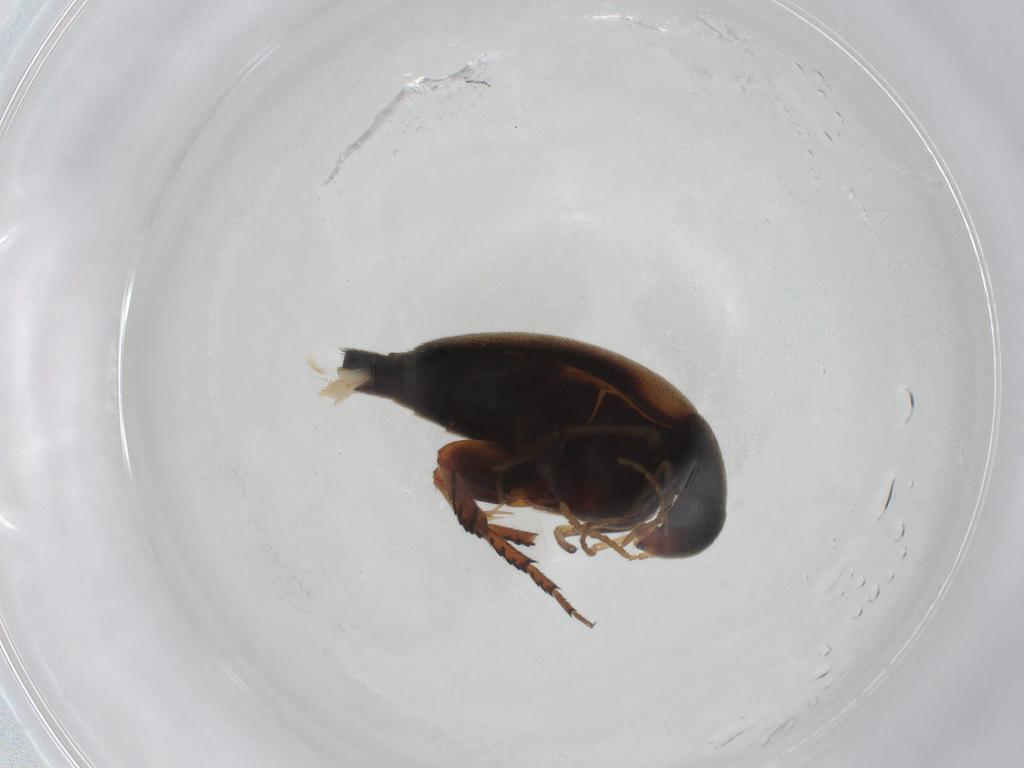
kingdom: Animalia
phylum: Arthropoda
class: Insecta
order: Coleoptera
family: Mordellidae
